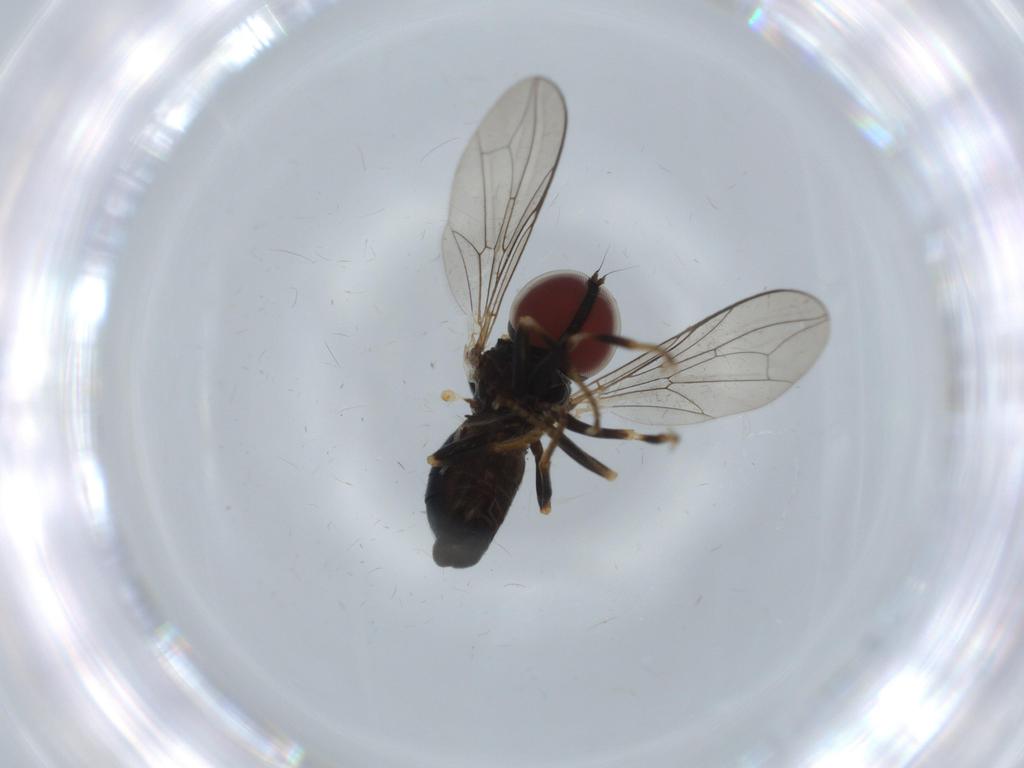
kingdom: Animalia
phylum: Arthropoda
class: Insecta
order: Diptera
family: Pipunculidae
